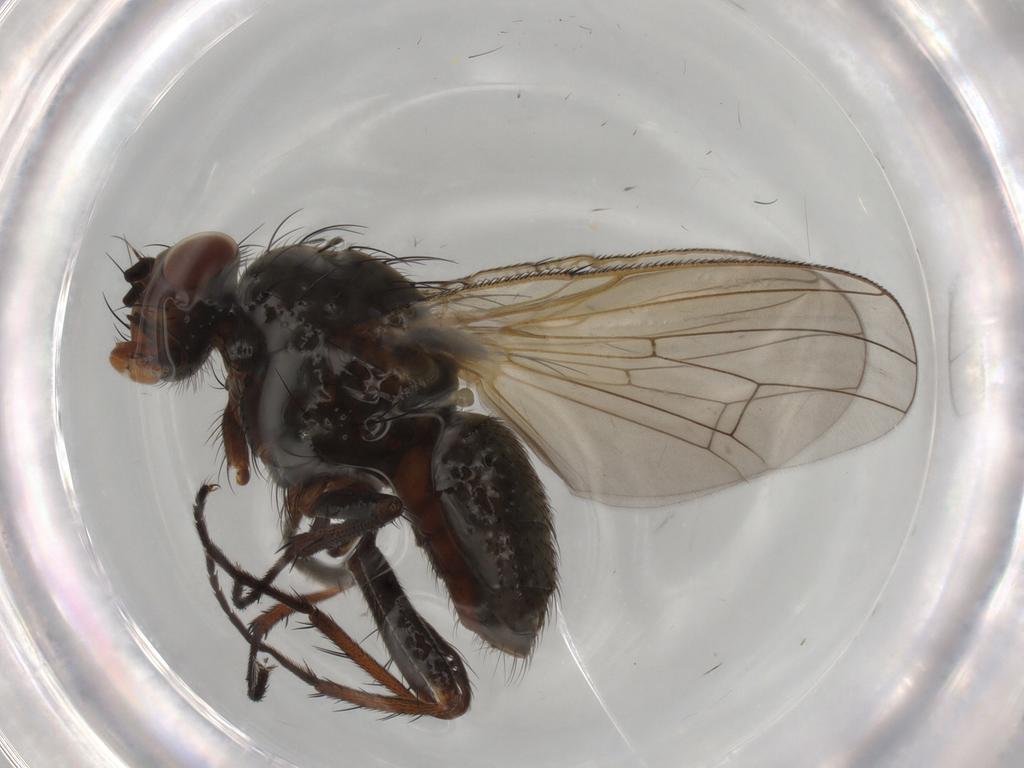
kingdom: Animalia
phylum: Arthropoda
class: Insecta
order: Diptera
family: Anthomyiidae
